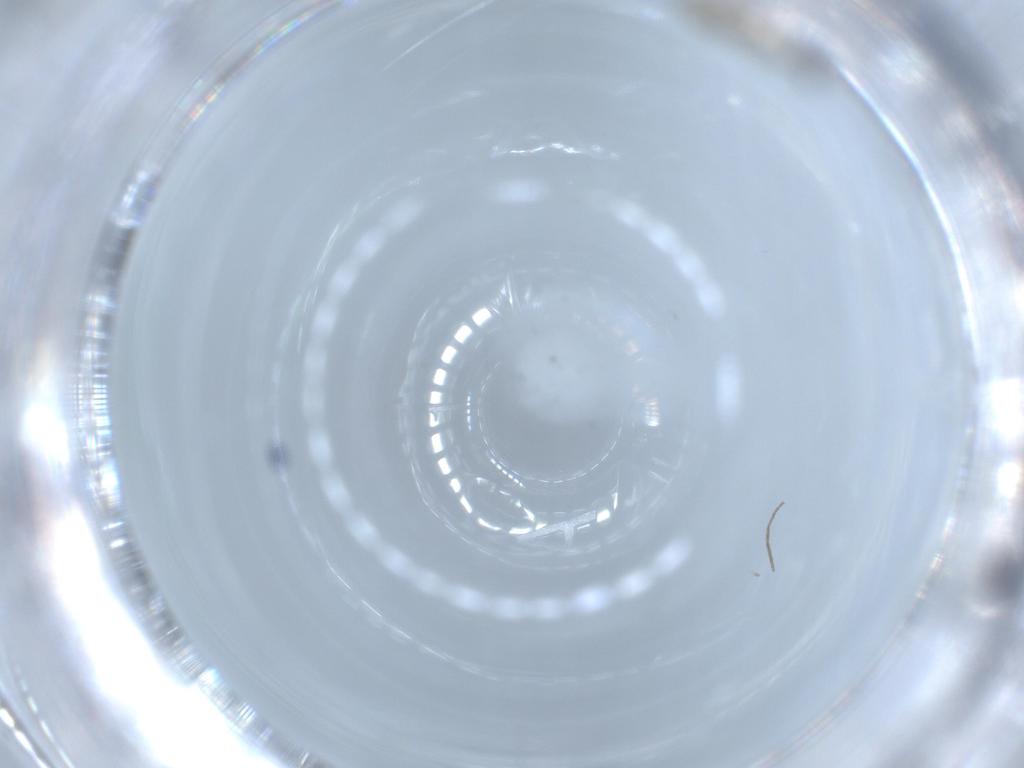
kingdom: Animalia
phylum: Arthropoda
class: Insecta
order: Diptera
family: Chironomidae
